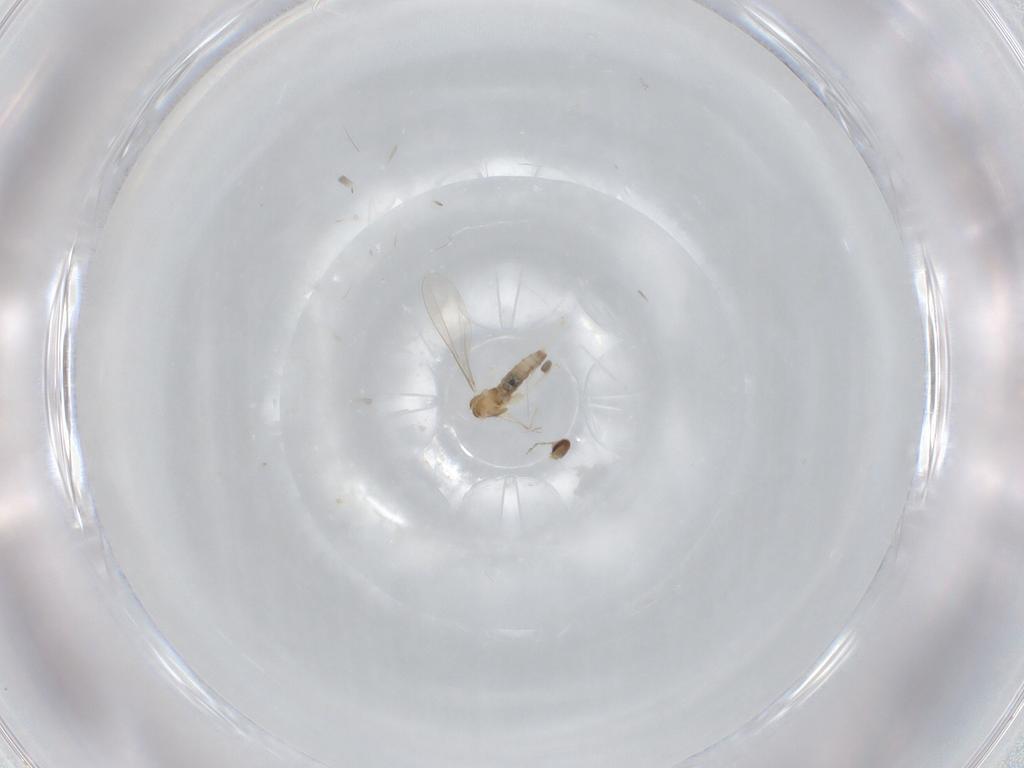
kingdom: Animalia
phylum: Arthropoda
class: Insecta
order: Diptera
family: Cecidomyiidae
